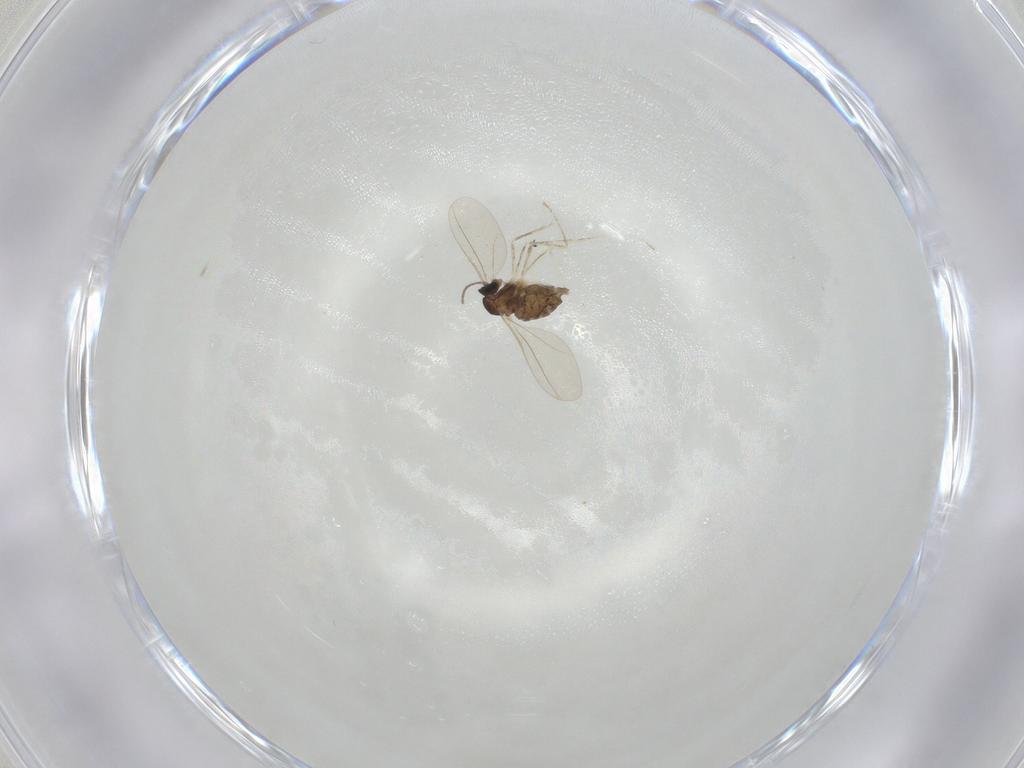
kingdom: Animalia
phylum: Arthropoda
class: Insecta
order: Diptera
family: Cecidomyiidae
